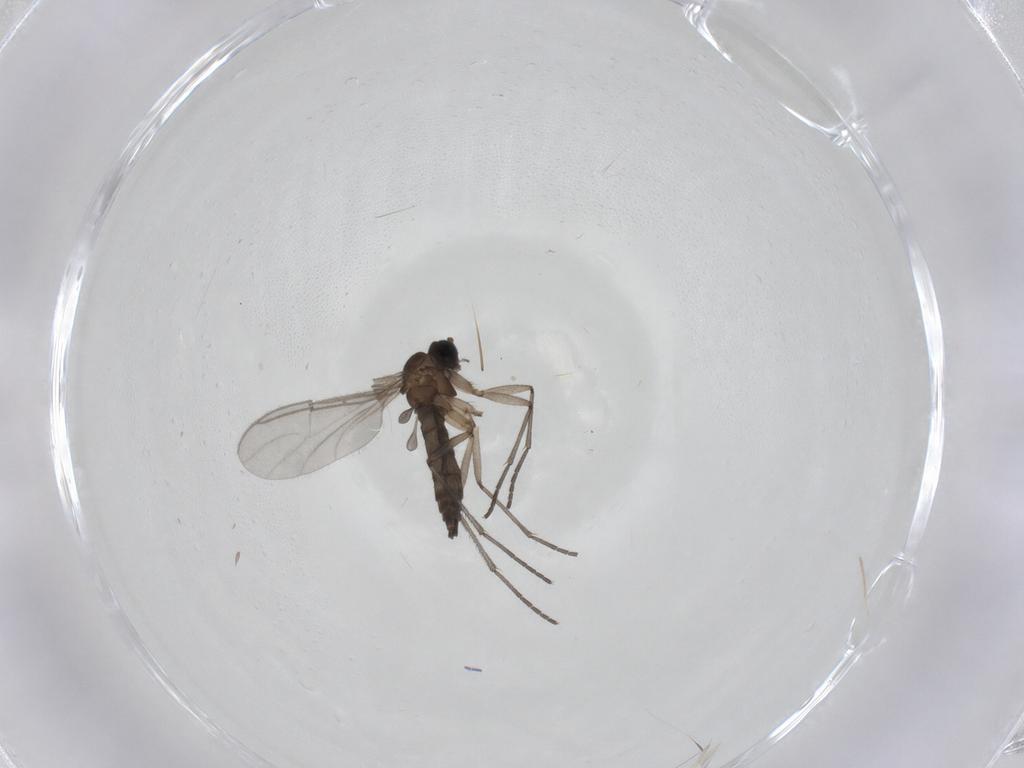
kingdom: Animalia
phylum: Arthropoda
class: Insecta
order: Diptera
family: Sciaridae
